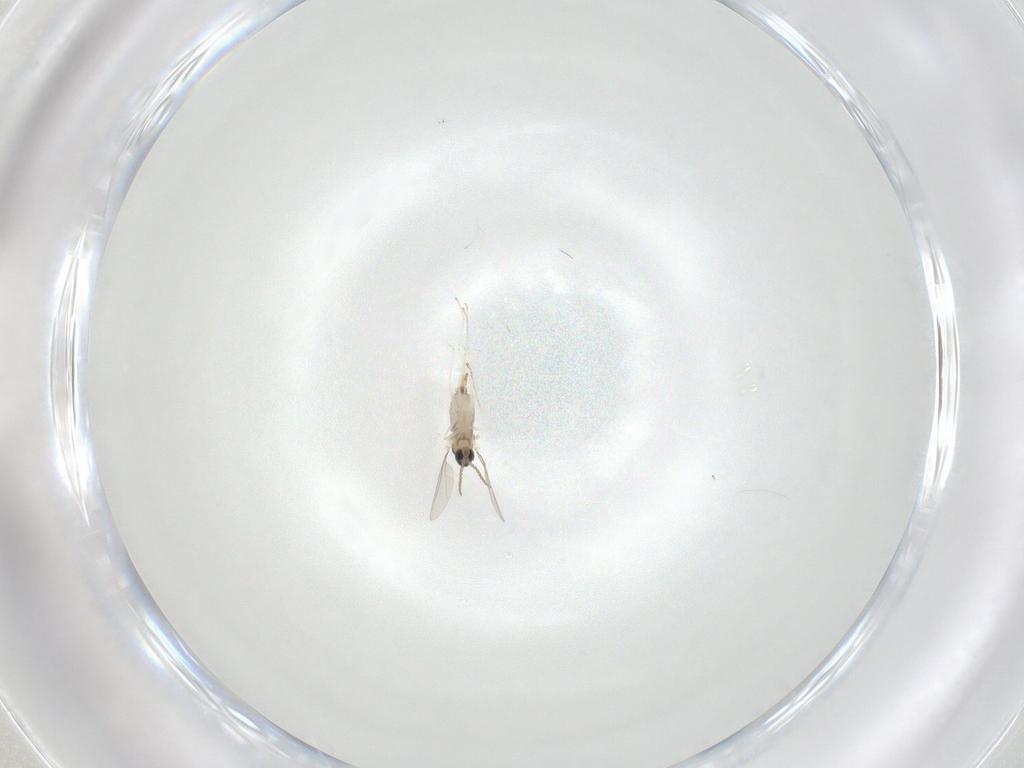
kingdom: Animalia
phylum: Arthropoda
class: Insecta
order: Diptera
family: Cecidomyiidae
